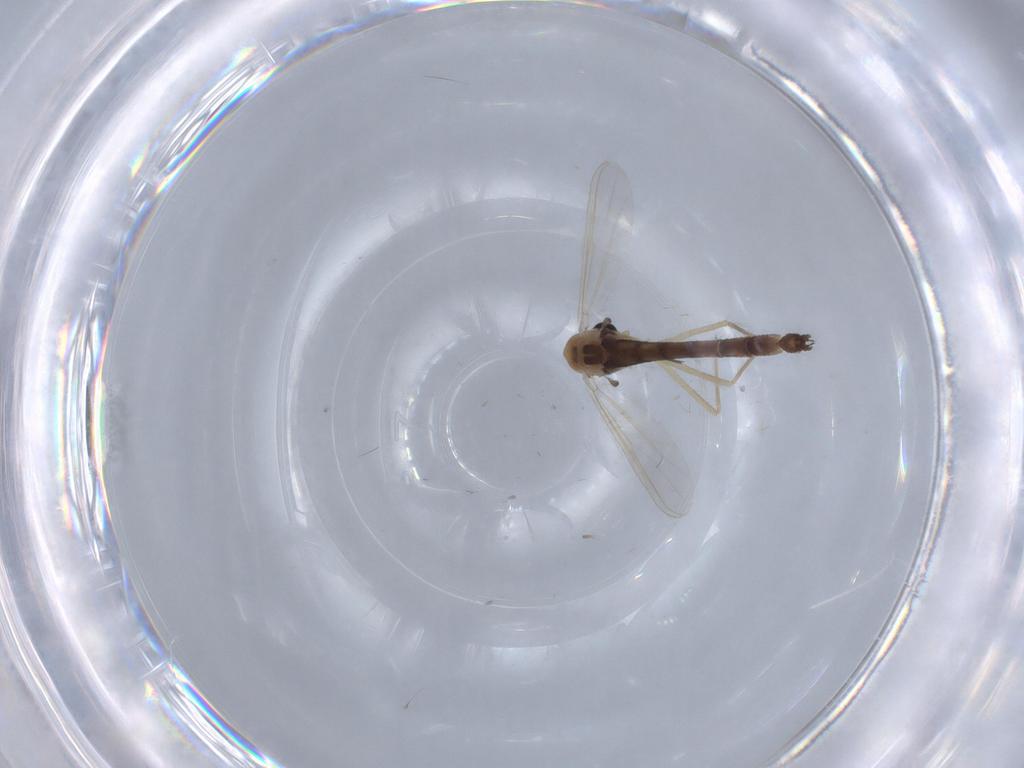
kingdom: Animalia
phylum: Arthropoda
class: Insecta
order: Diptera
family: Chironomidae
